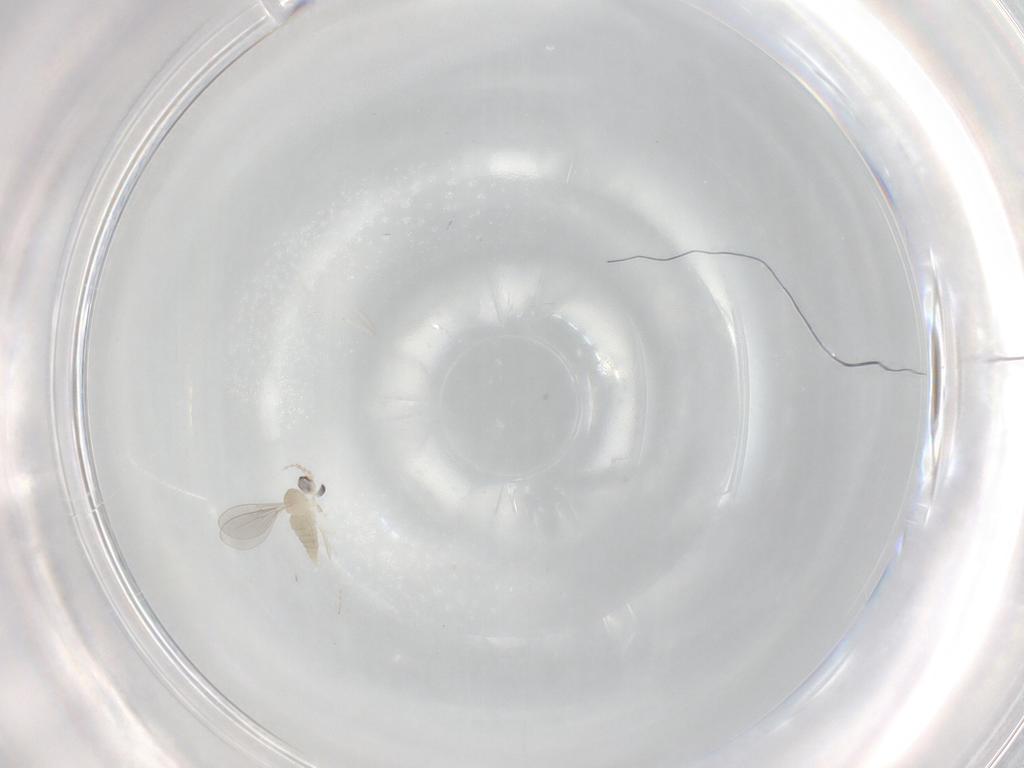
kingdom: Animalia
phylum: Arthropoda
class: Insecta
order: Diptera
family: Cecidomyiidae
